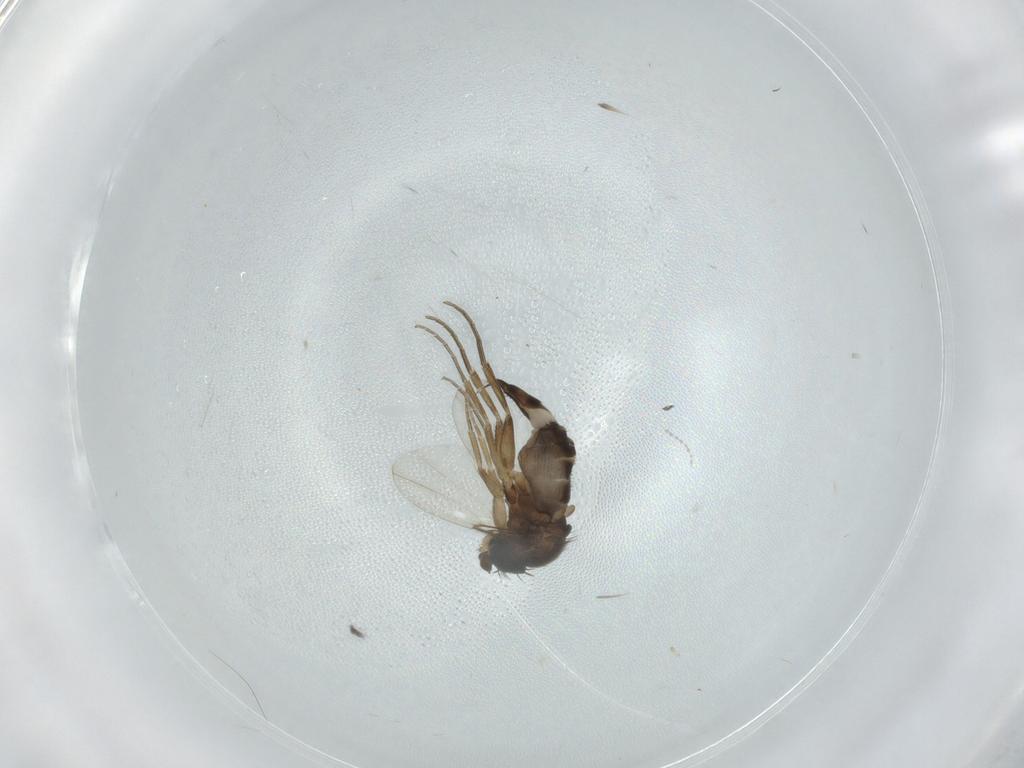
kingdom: Animalia
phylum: Arthropoda
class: Insecta
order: Diptera
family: Phoridae
